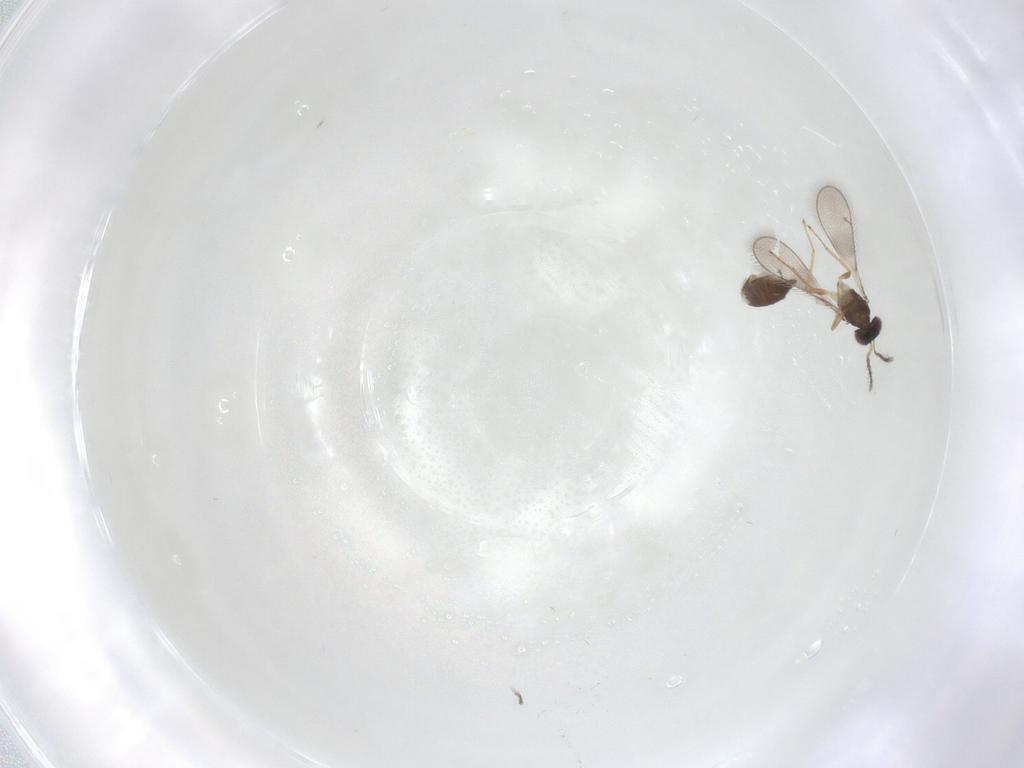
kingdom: Animalia
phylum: Arthropoda
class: Insecta
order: Hymenoptera
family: Eulophidae
